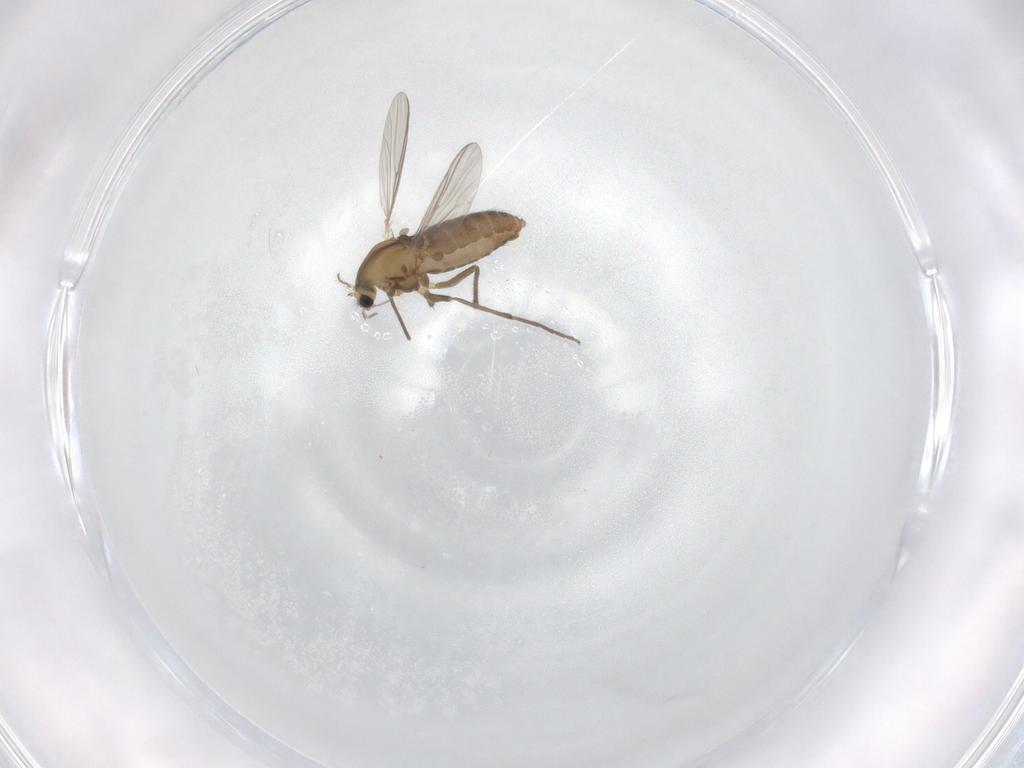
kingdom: Animalia
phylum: Arthropoda
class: Insecta
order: Diptera
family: Chironomidae
